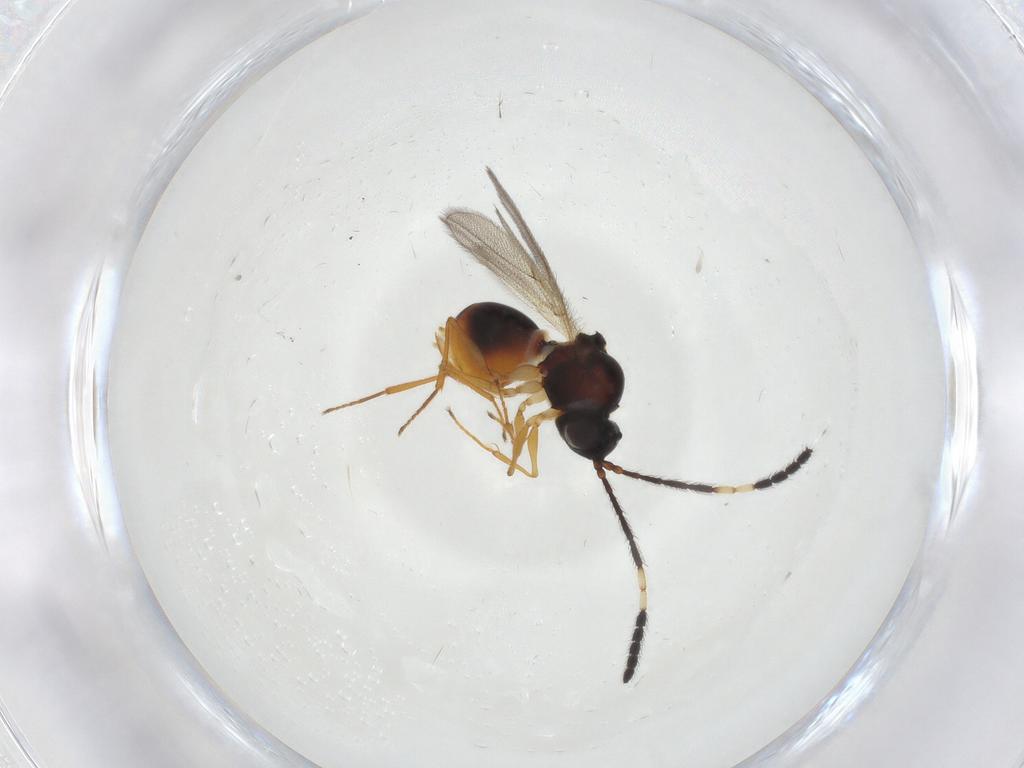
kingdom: Animalia
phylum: Arthropoda
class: Insecta
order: Hymenoptera
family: Figitidae
